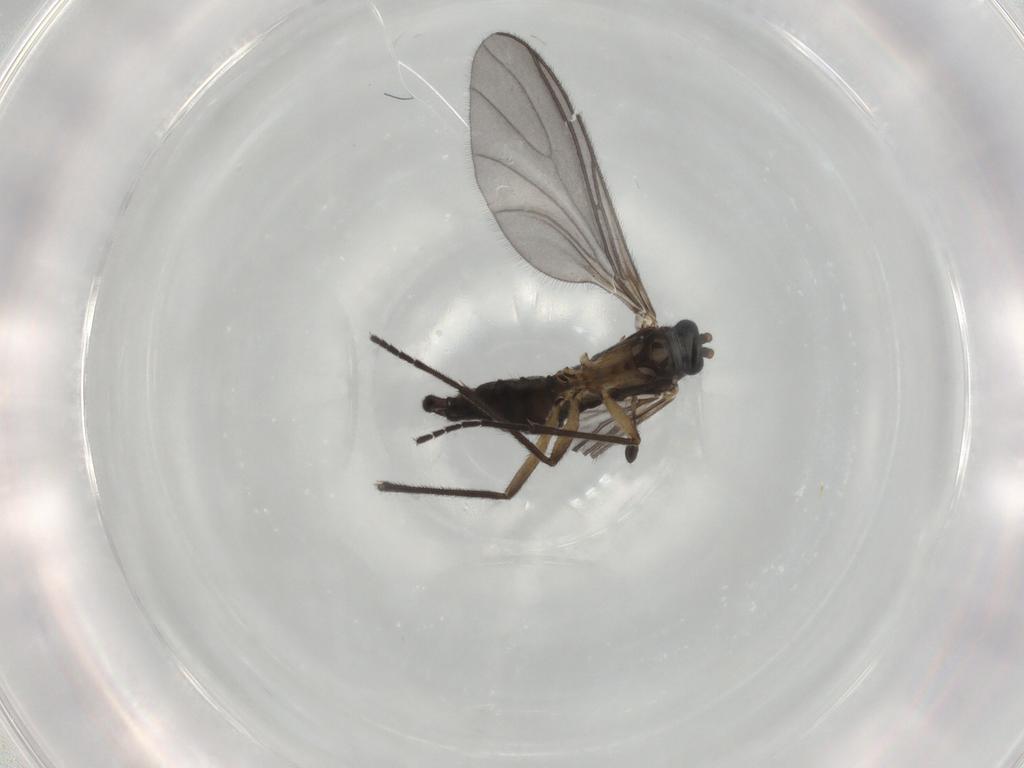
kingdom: Animalia
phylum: Arthropoda
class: Insecta
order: Diptera
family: Sciaridae
